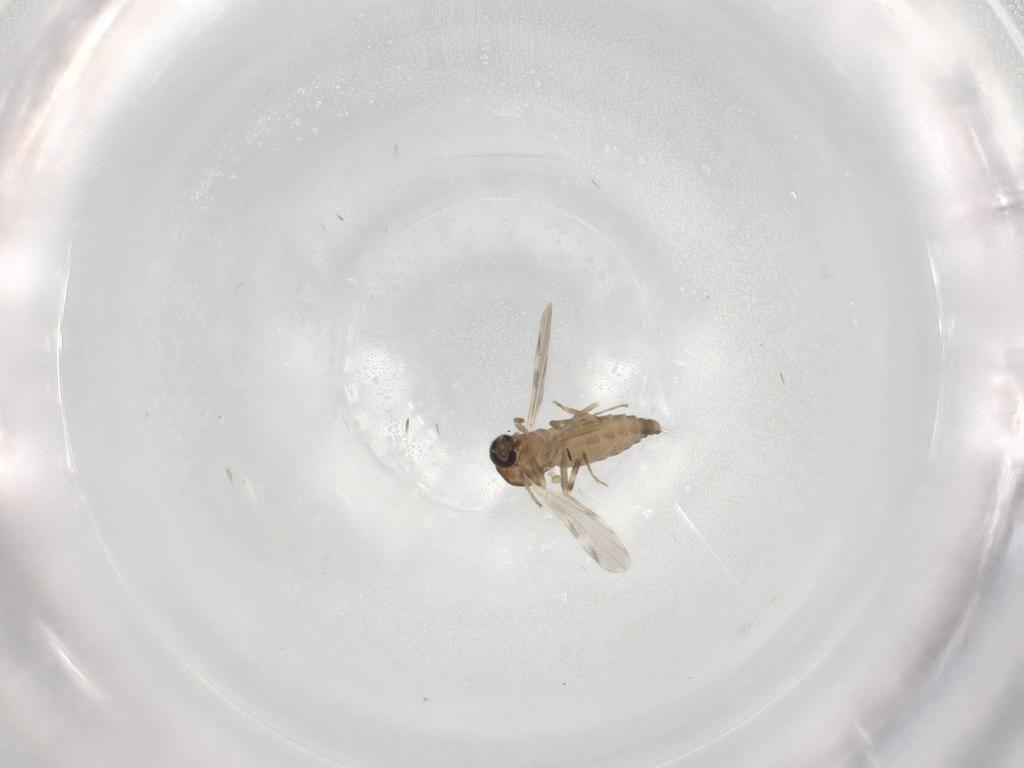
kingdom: Animalia
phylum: Arthropoda
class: Insecta
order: Diptera
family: Ceratopogonidae
